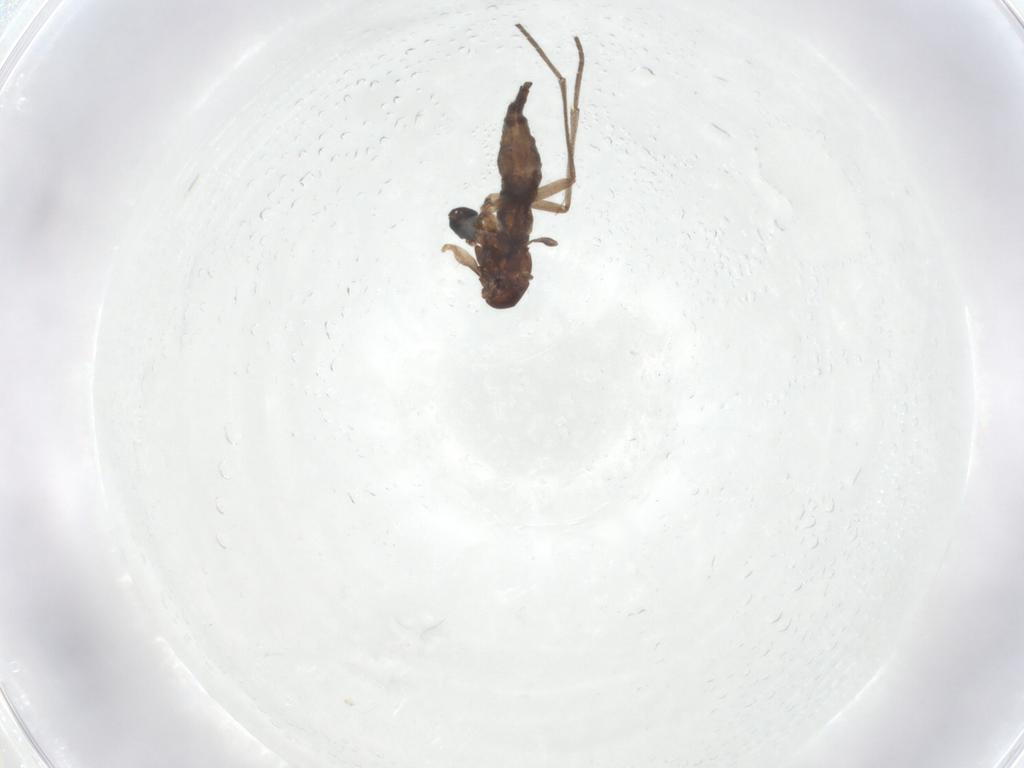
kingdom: Animalia
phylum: Arthropoda
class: Insecta
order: Diptera
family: Sciaridae
